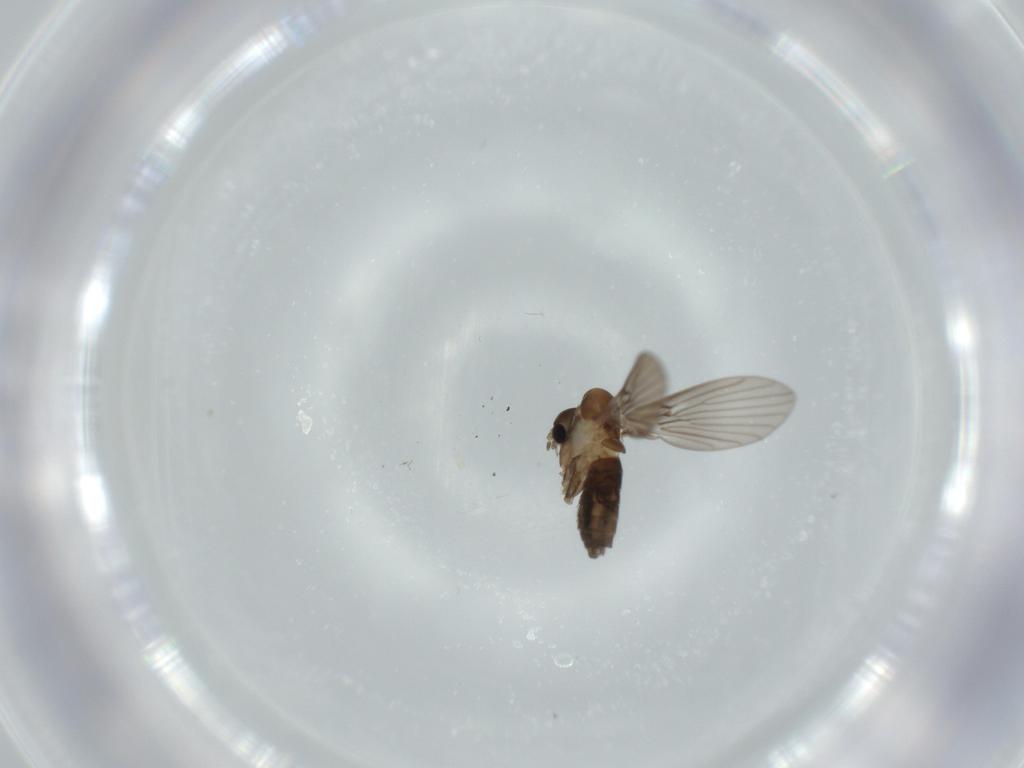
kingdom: Animalia
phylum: Arthropoda
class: Insecta
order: Diptera
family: Psychodidae
